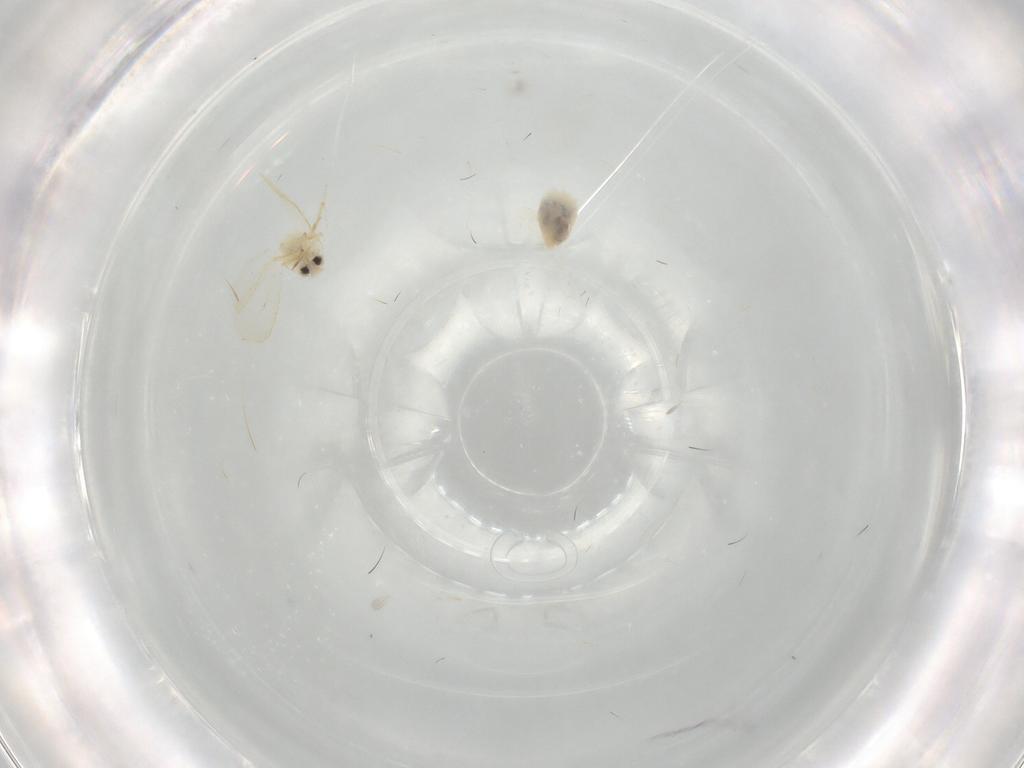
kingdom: Animalia
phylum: Arthropoda
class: Insecta
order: Hemiptera
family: Aleyrodidae
